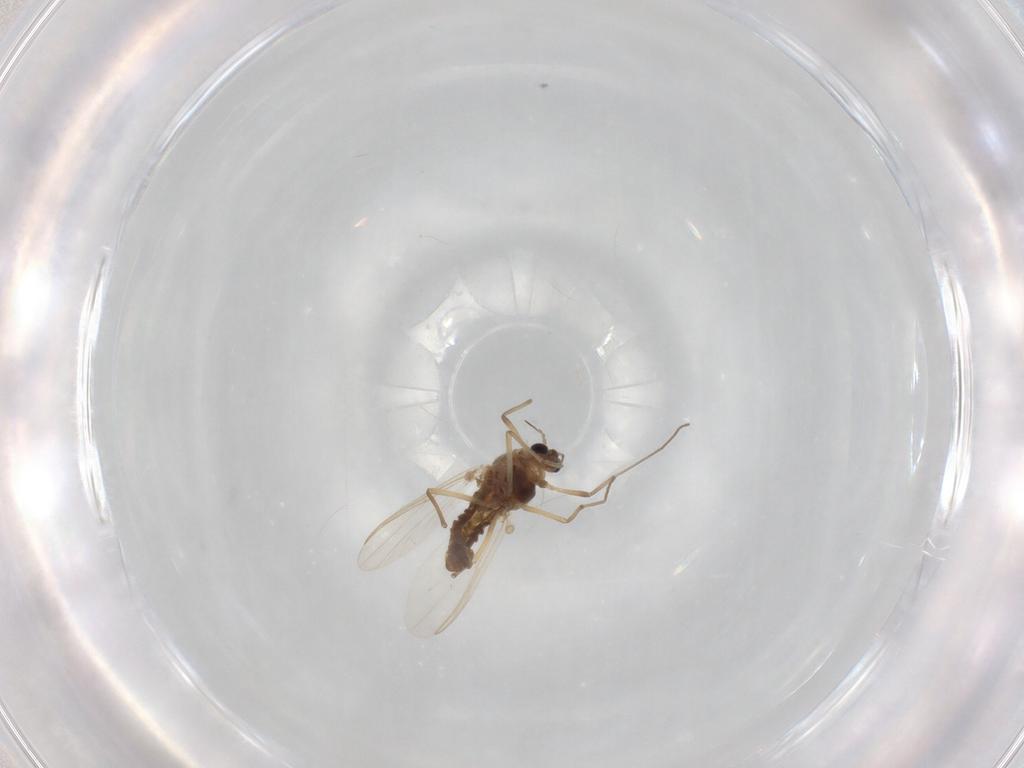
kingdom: Animalia
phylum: Arthropoda
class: Insecta
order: Diptera
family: Chironomidae
